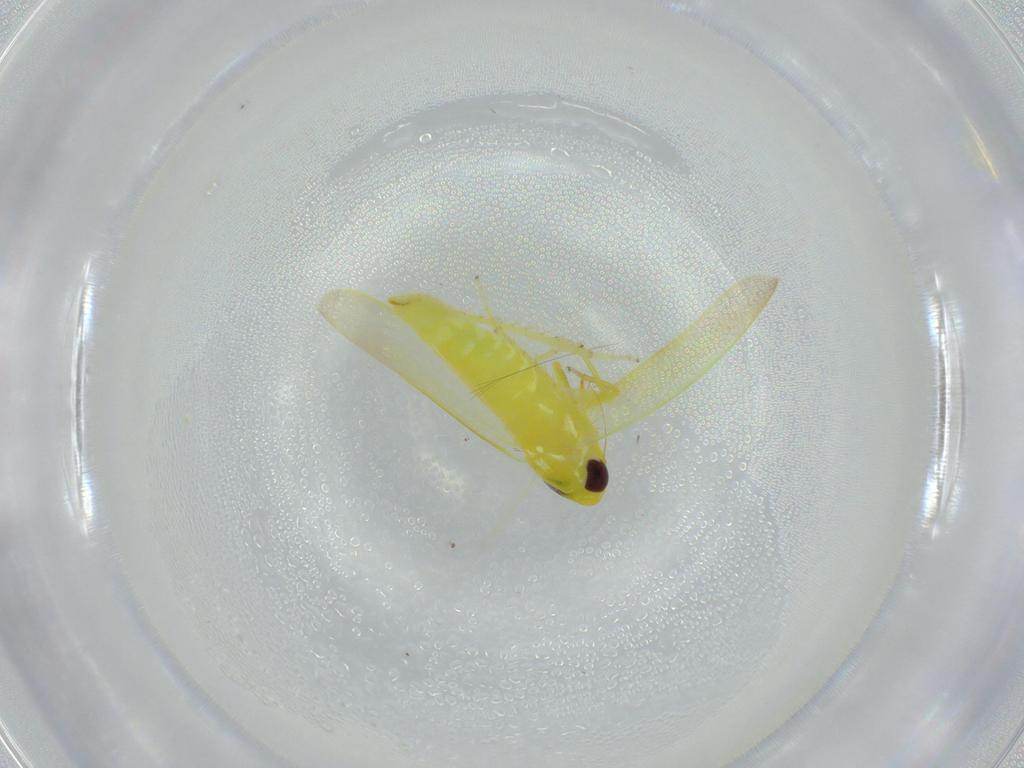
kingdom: Animalia
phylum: Arthropoda
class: Insecta
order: Hemiptera
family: Cicadellidae
